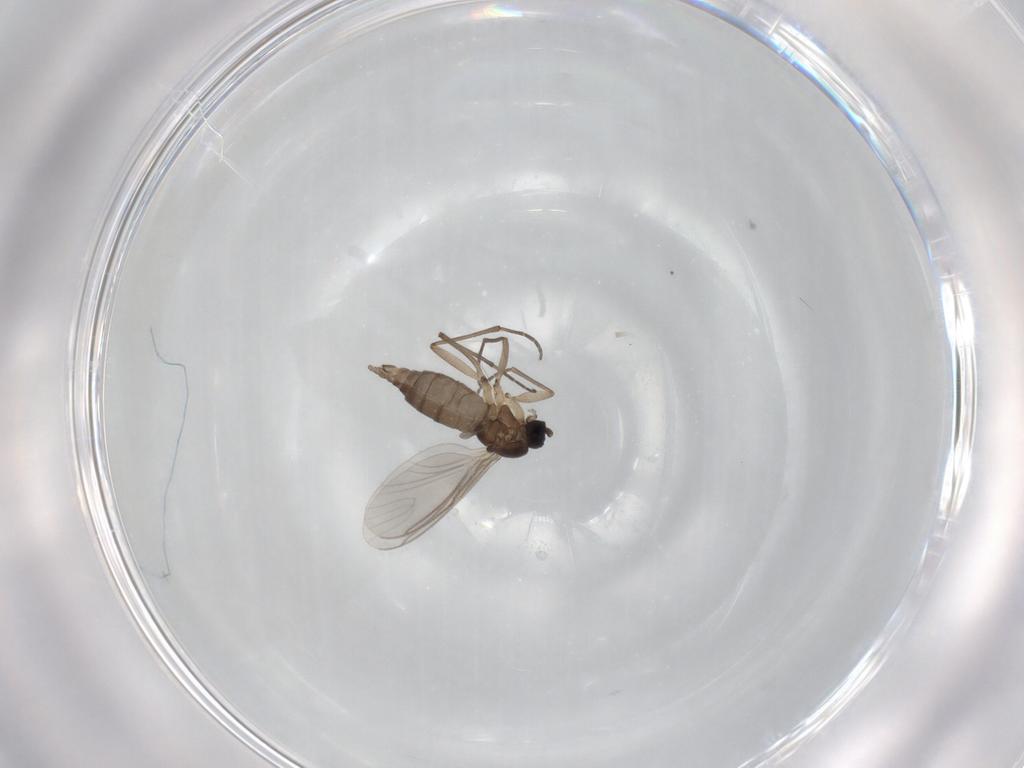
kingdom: Animalia
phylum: Arthropoda
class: Insecta
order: Diptera
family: Sciaridae
